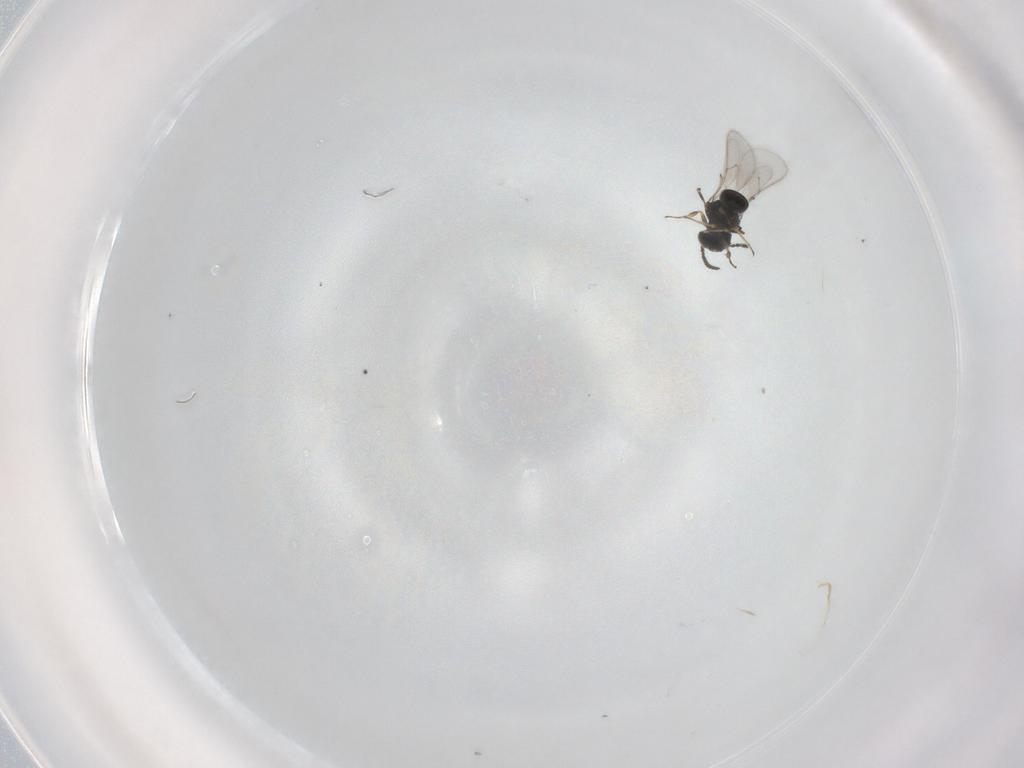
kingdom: Animalia
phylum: Arthropoda
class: Insecta
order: Hymenoptera
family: Scelionidae
